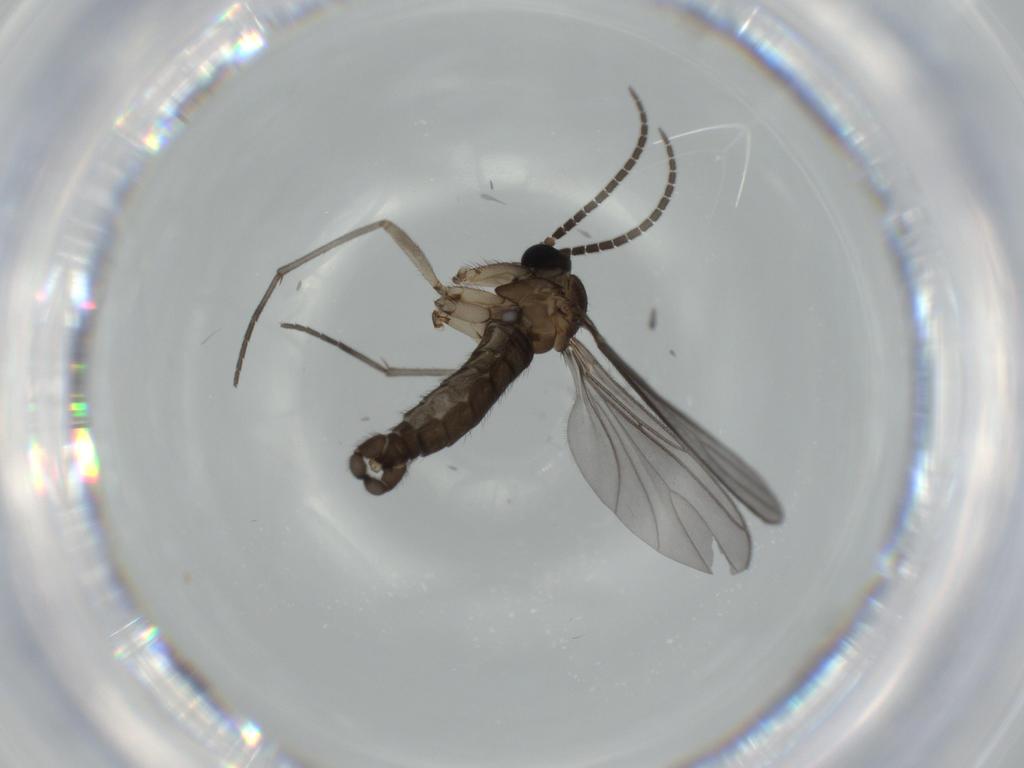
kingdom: Animalia
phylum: Arthropoda
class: Insecta
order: Diptera
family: Sciaridae
